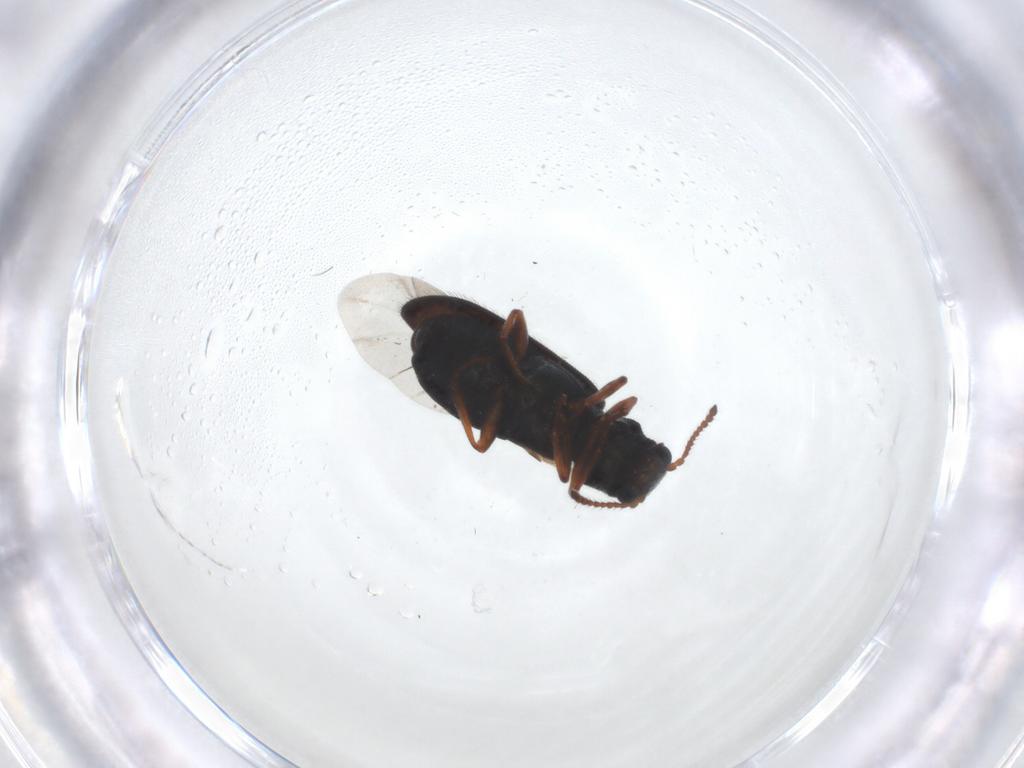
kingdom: Animalia
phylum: Arthropoda
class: Insecta
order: Coleoptera
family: Melyridae
